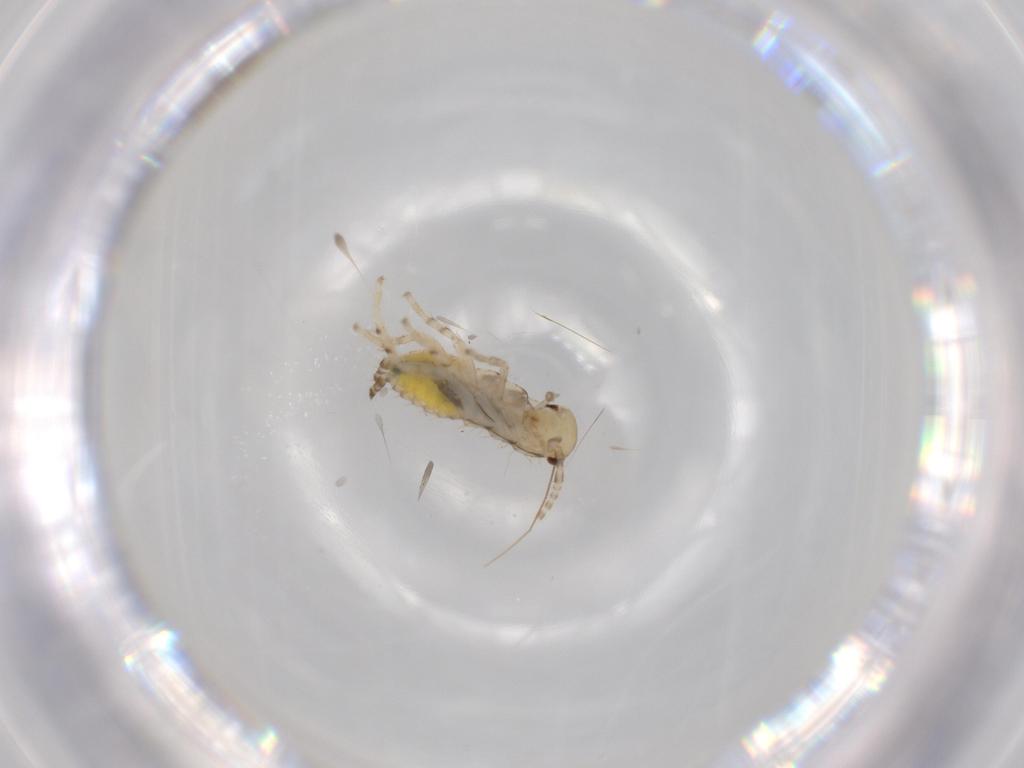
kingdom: Animalia
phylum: Arthropoda
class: Insecta
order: Blattodea
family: Ectobiidae
